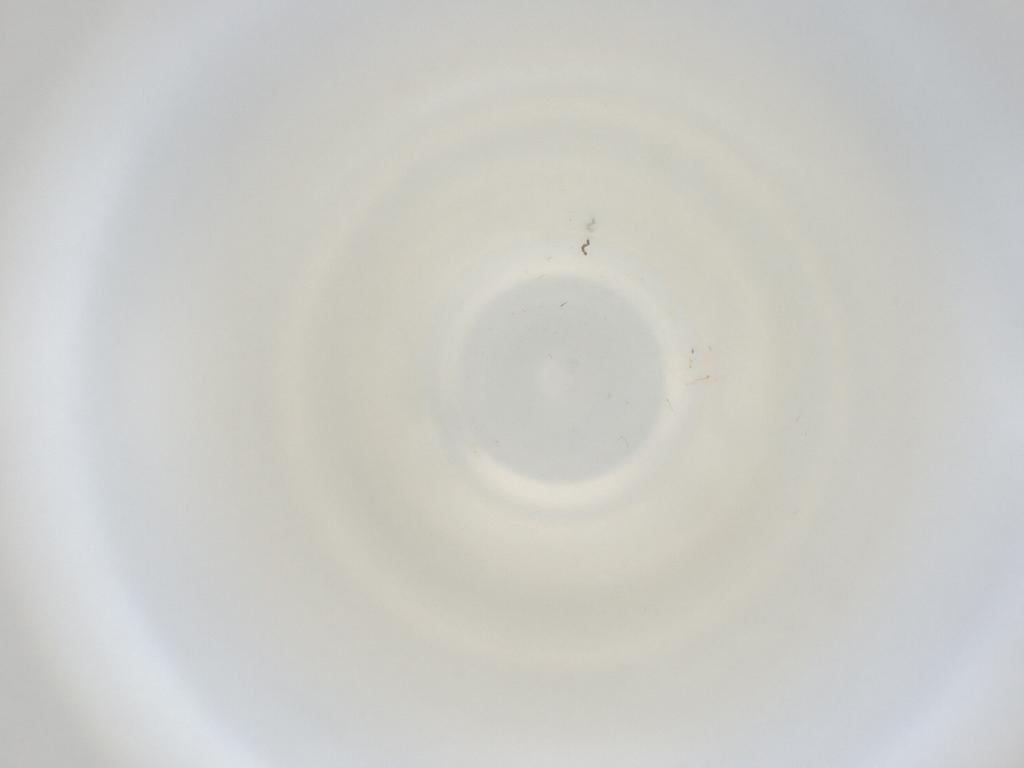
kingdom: Animalia
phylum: Arthropoda
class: Insecta
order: Diptera
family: Cecidomyiidae
